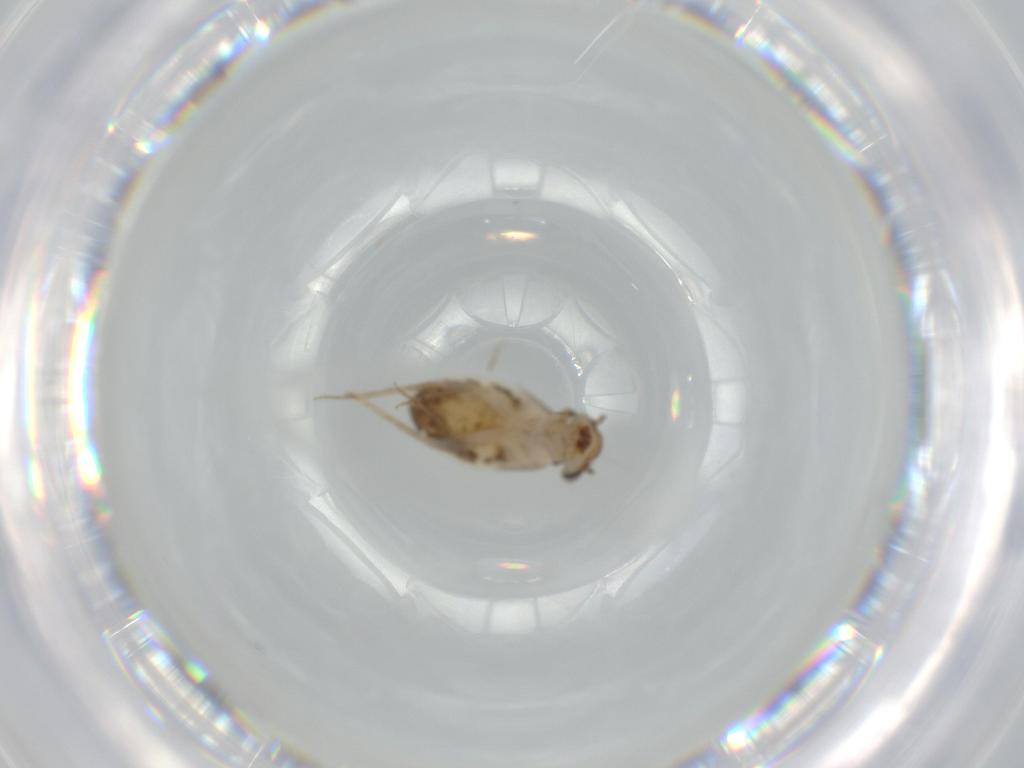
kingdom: Animalia
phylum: Arthropoda
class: Insecta
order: Psocodea
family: Lepidopsocidae
